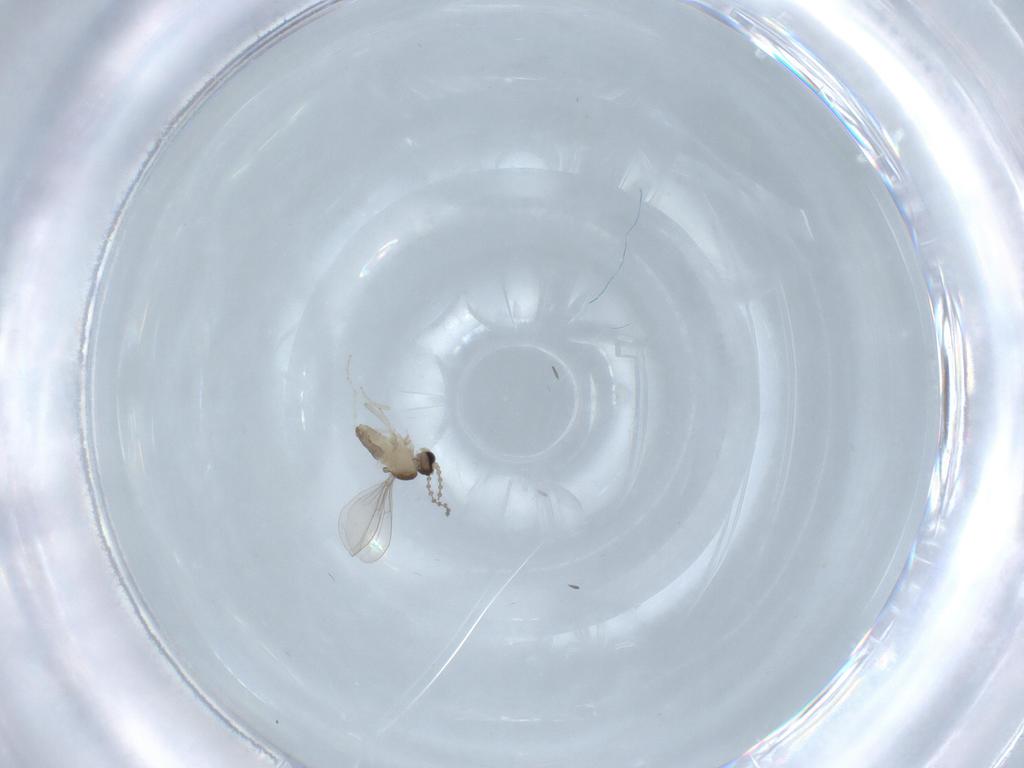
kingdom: Animalia
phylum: Arthropoda
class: Insecta
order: Diptera
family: Cecidomyiidae
